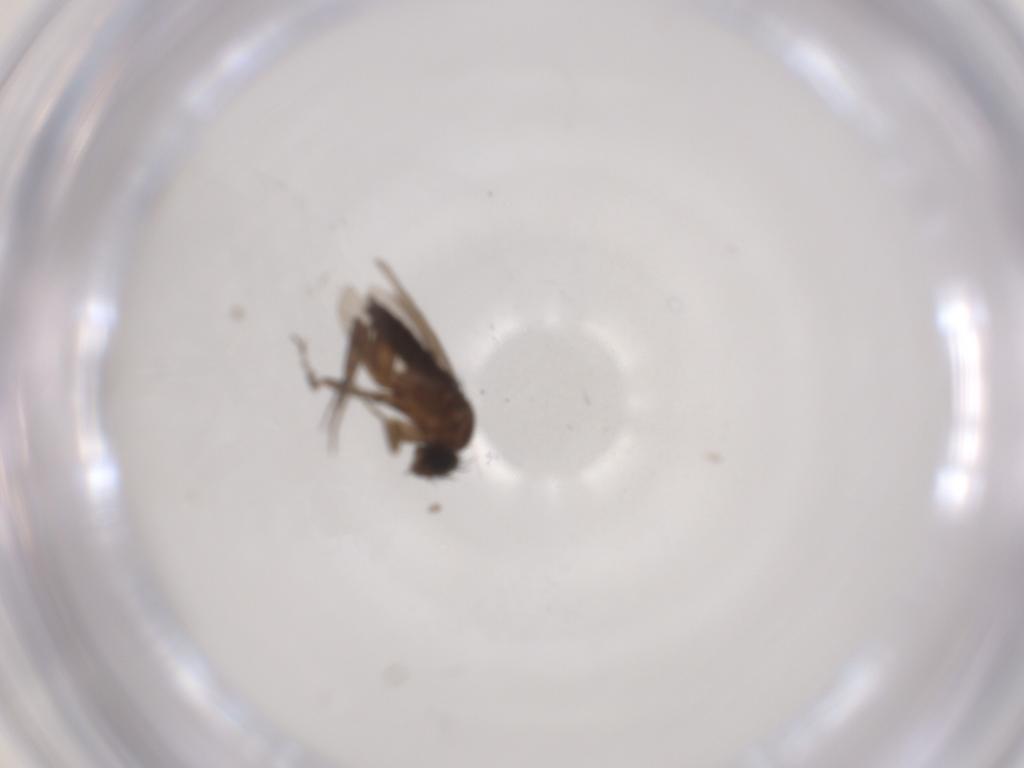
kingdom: Animalia
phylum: Arthropoda
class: Insecta
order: Diptera
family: Phoridae
